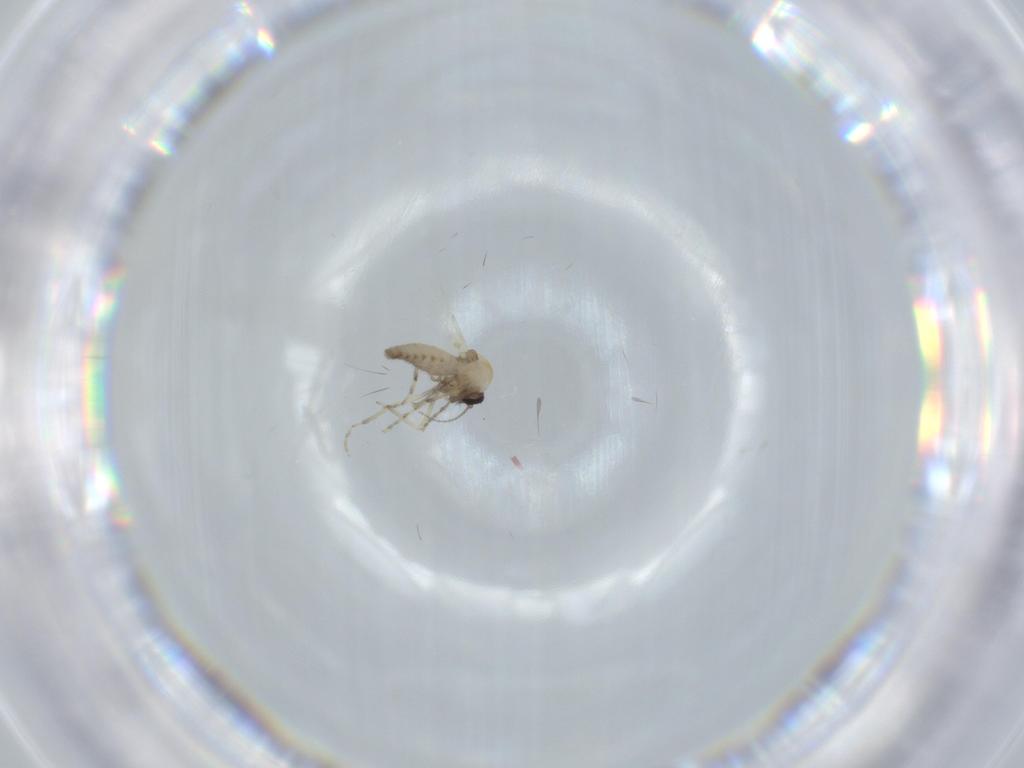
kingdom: Animalia
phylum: Arthropoda
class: Insecta
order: Diptera
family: Ceratopogonidae
